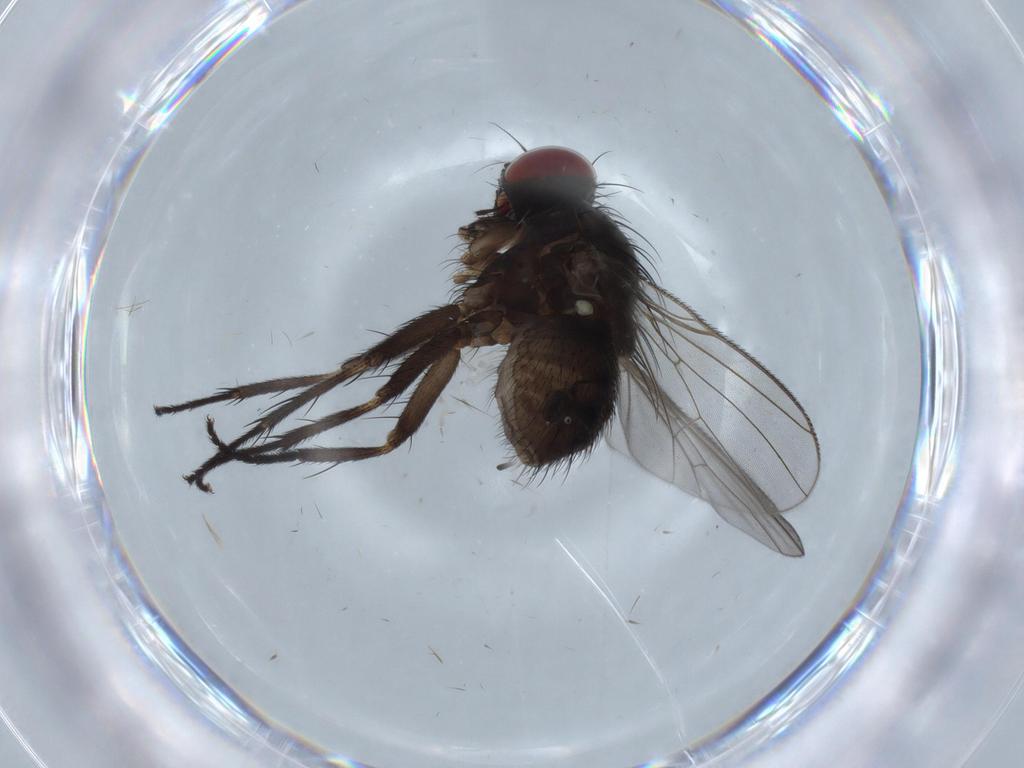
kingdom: Animalia
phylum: Arthropoda
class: Insecta
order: Diptera
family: Muscidae
